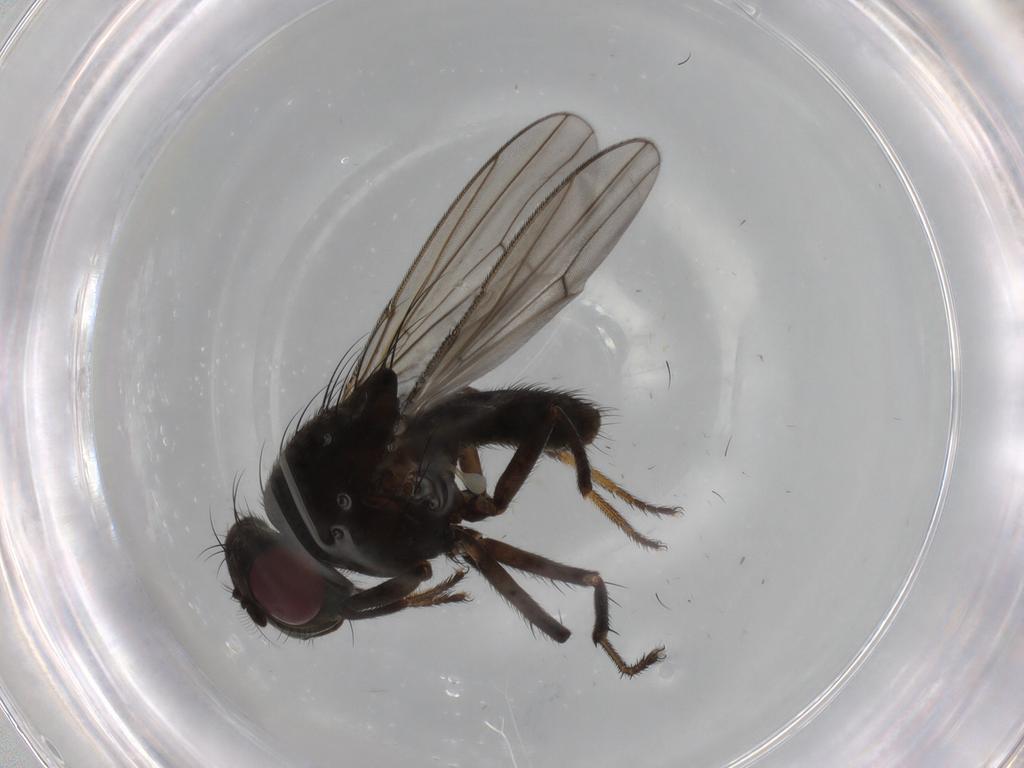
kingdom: Animalia
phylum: Arthropoda
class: Insecta
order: Diptera
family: Ephydridae
